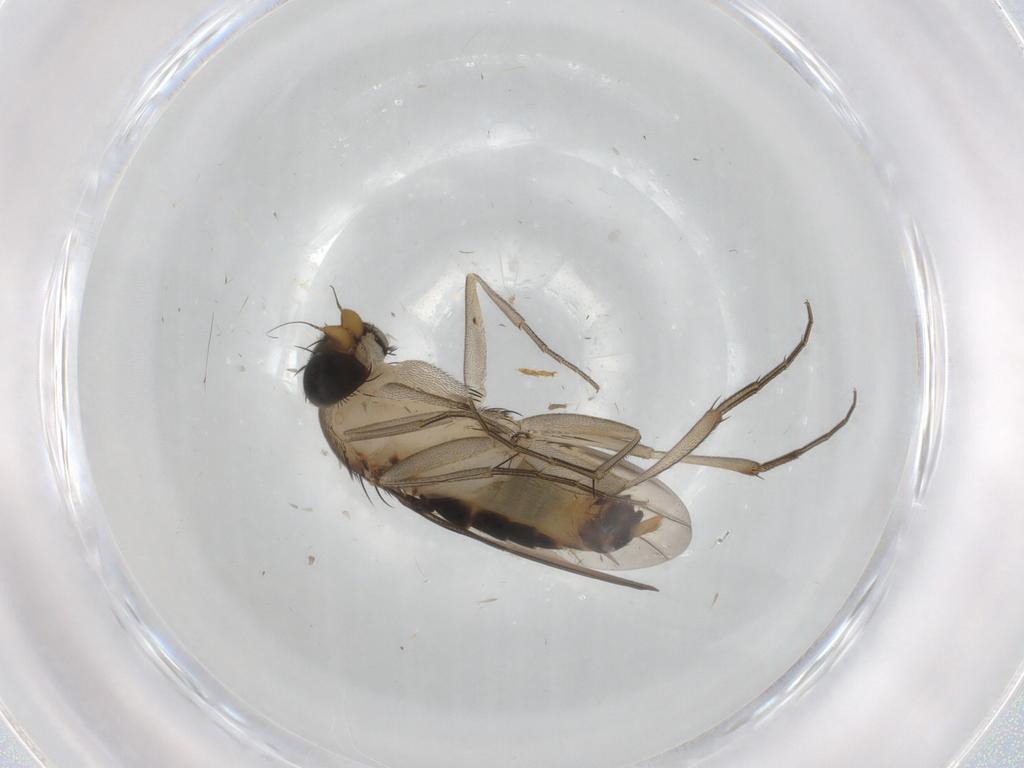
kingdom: Animalia
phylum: Arthropoda
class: Insecta
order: Diptera
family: Phoridae
